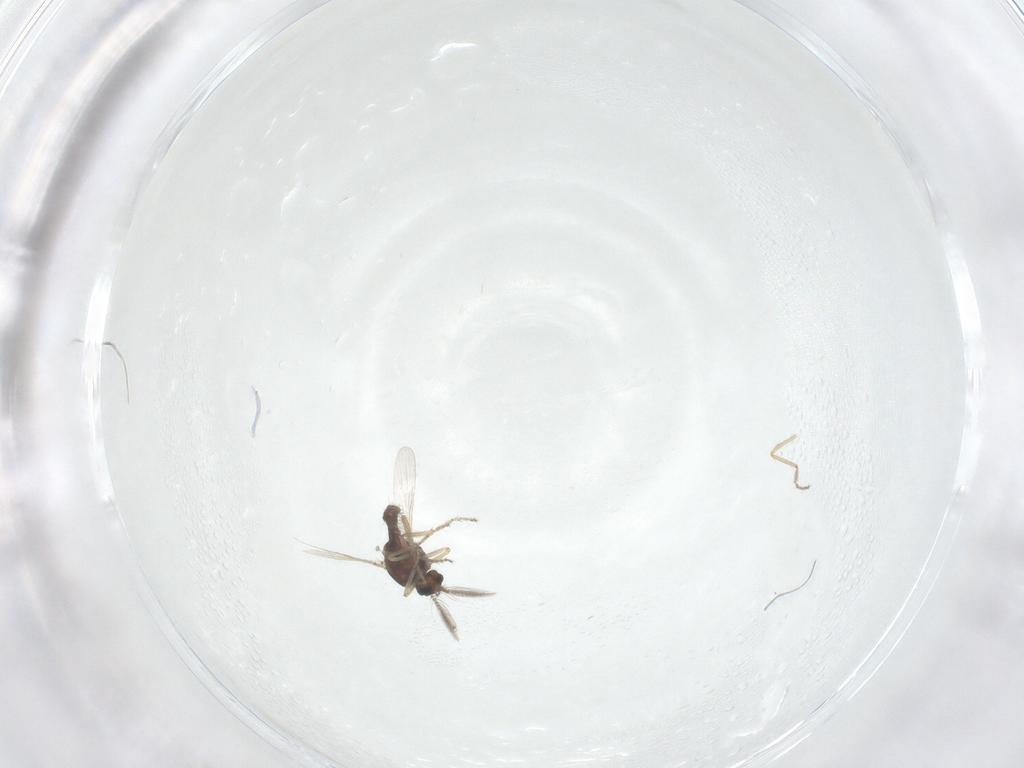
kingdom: Animalia
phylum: Arthropoda
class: Insecta
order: Diptera
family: Ceratopogonidae
